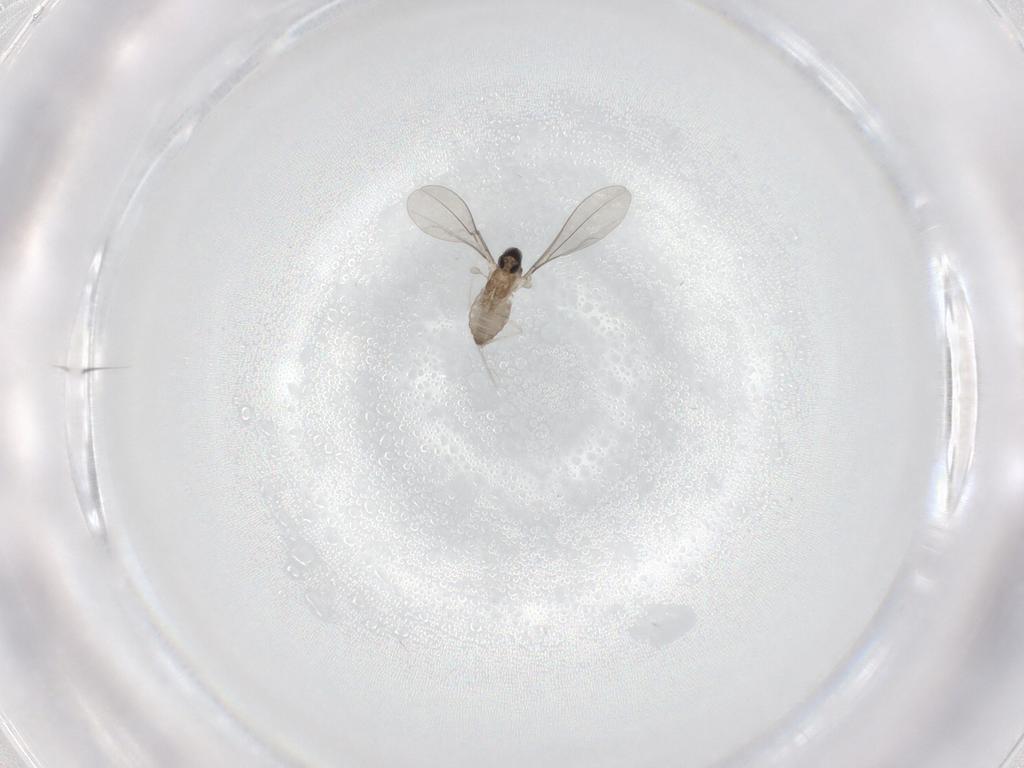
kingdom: Animalia
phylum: Arthropoda
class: Insecta
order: Diptera
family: Cecidomyiidae
